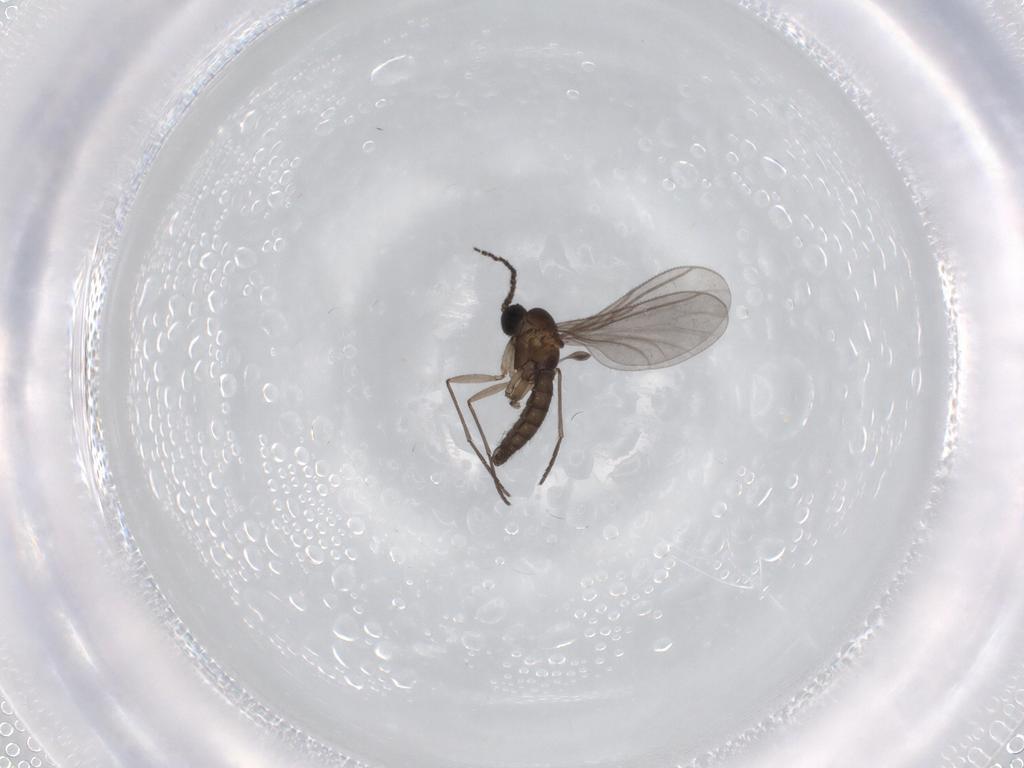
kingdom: Animalia
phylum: Arthropoda
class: Insecta
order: Diptera
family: Sciaridae
